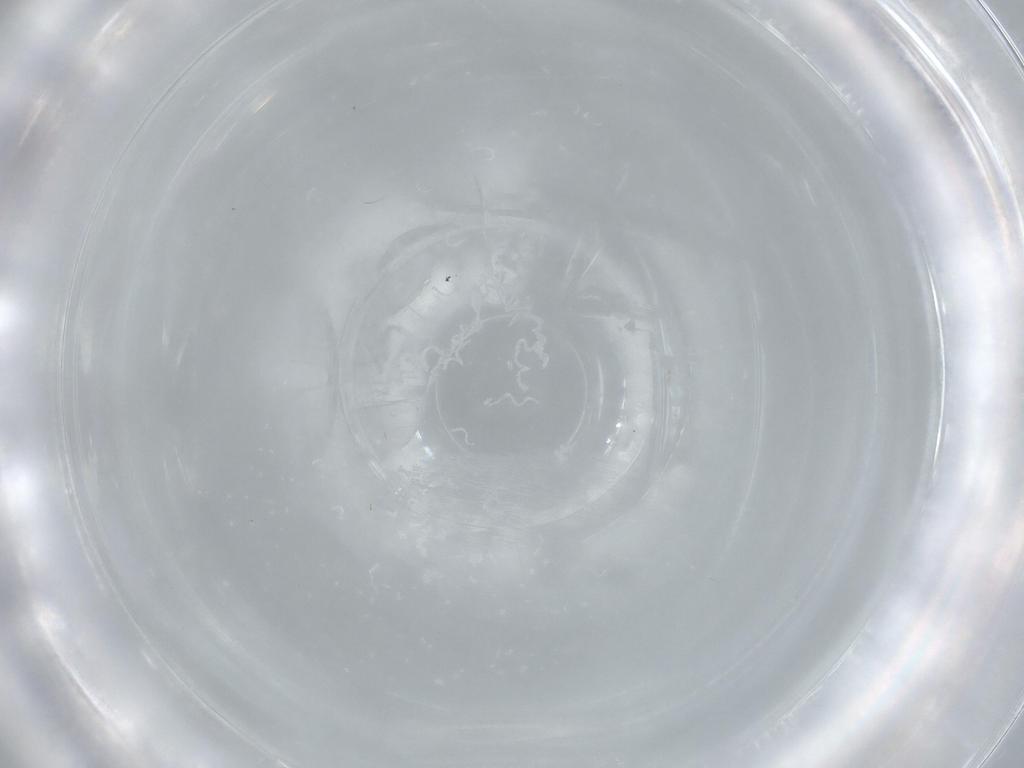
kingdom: Animalia
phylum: Arthropoda
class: Insecta
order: Diptera
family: Phoridae
